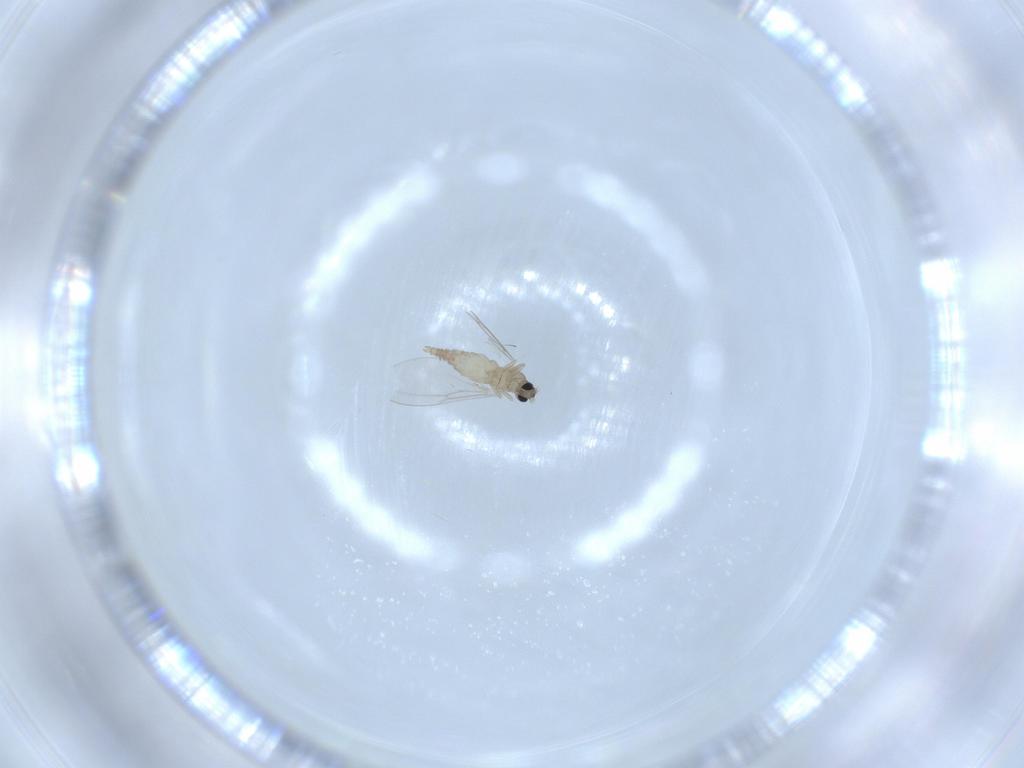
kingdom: Animalia
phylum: Arthropoda
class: Insecta
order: Diptera
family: Cecidomyiidae
